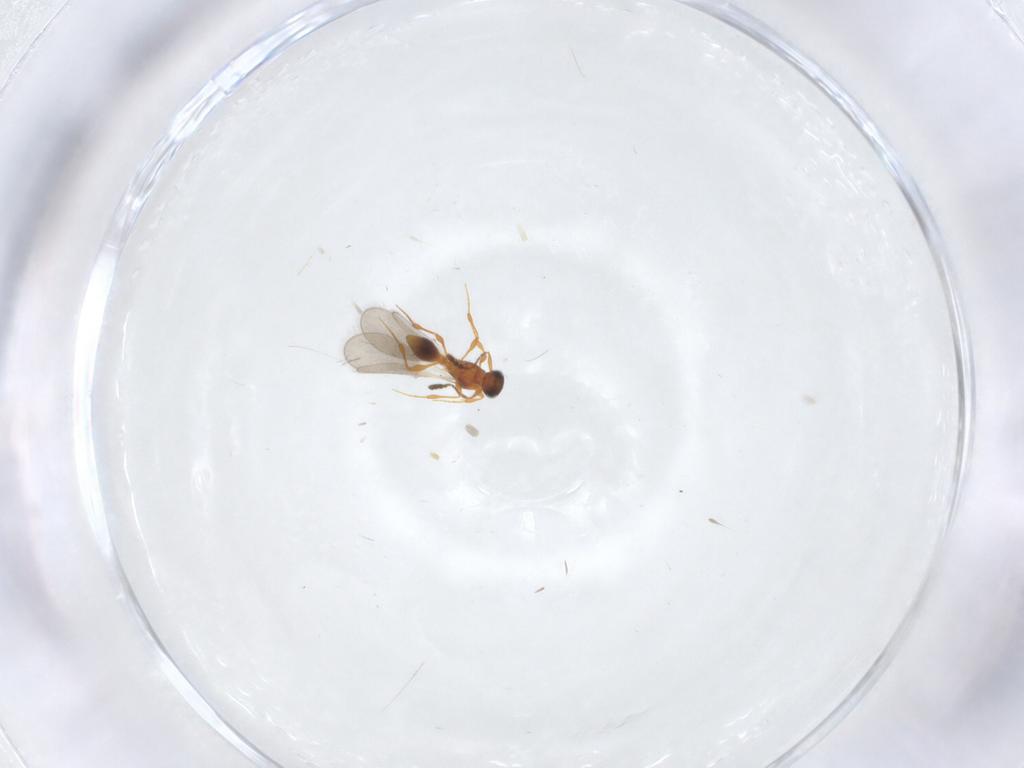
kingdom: Animalia
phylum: Arthropoda
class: Insecta
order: Hymenoptera
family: Platygastridae
